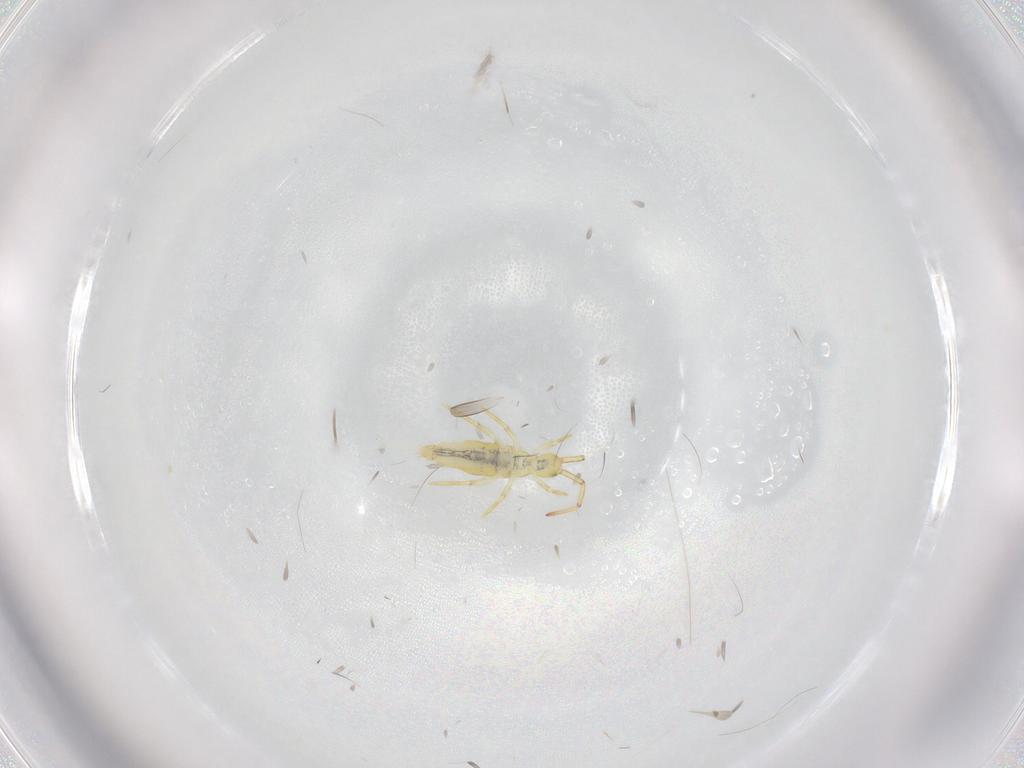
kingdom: Animalia
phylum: Arthropoda
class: Collembola
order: Entomobryomorpha
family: Paronellidae
